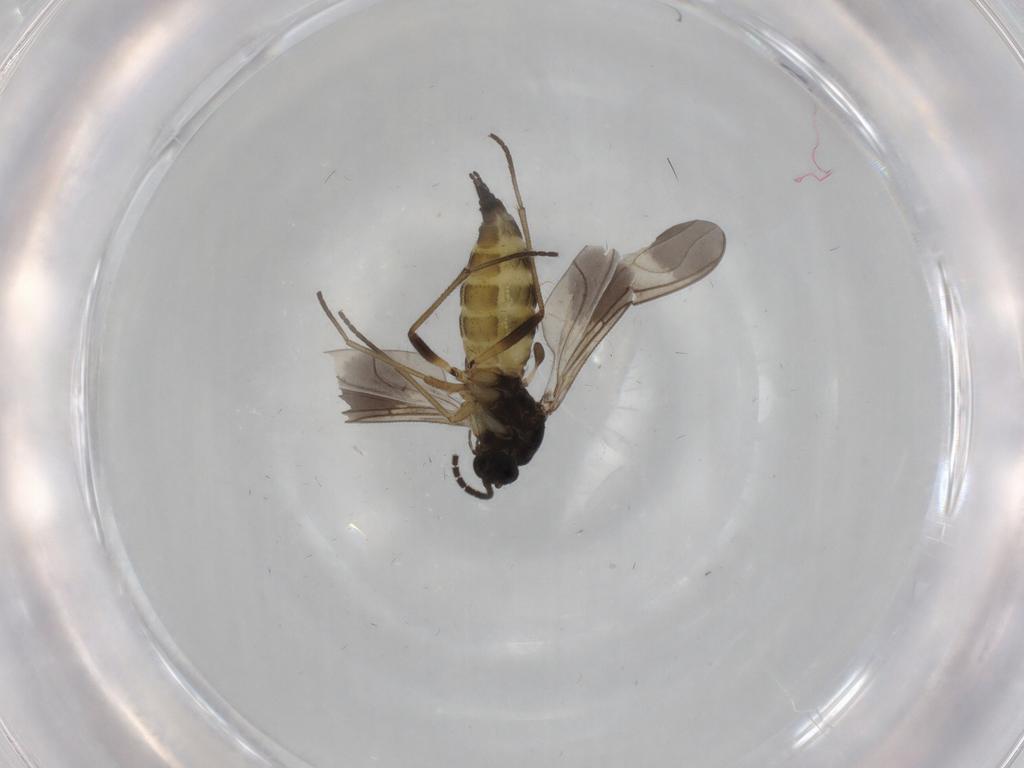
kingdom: Animalia
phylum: Arthropoda
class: Insecta
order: Diptera
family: Sciaridae
